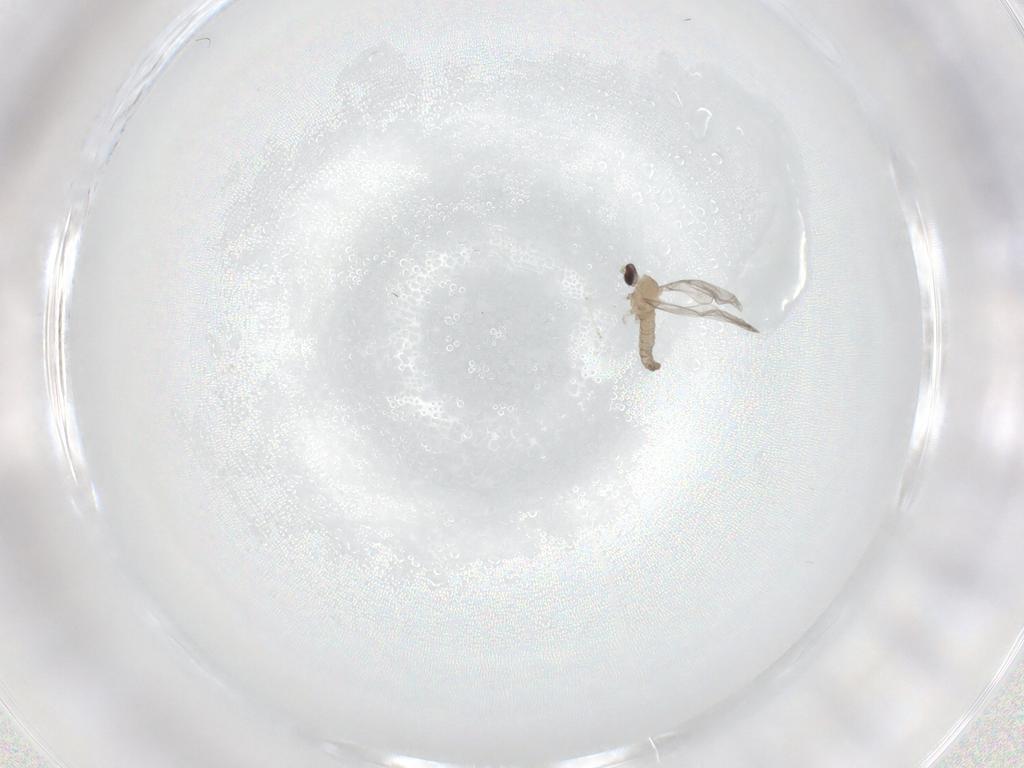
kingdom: Animalia
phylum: Arthropoda
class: Insecta
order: Diptera
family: Cecidomyiidae
